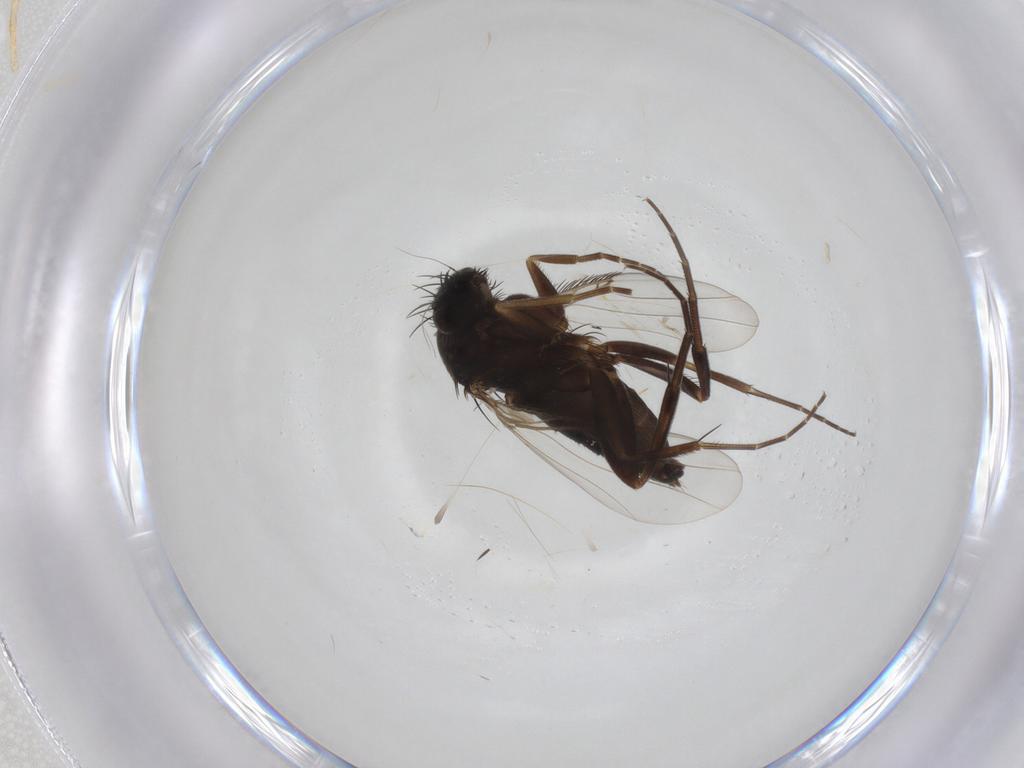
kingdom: Animalia
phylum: Arthropoda
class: Insecta
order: Diptera
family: Phoridae
